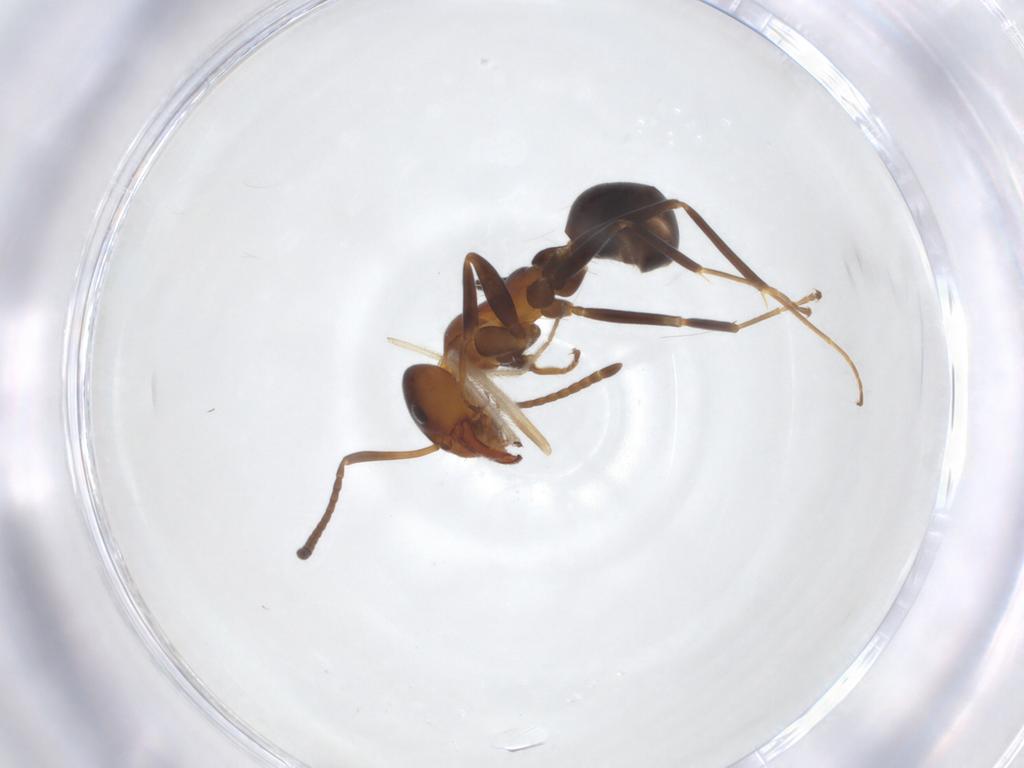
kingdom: Animalia
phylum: Arthropoda
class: Insecta
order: Hymenoptera
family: Formicidae
